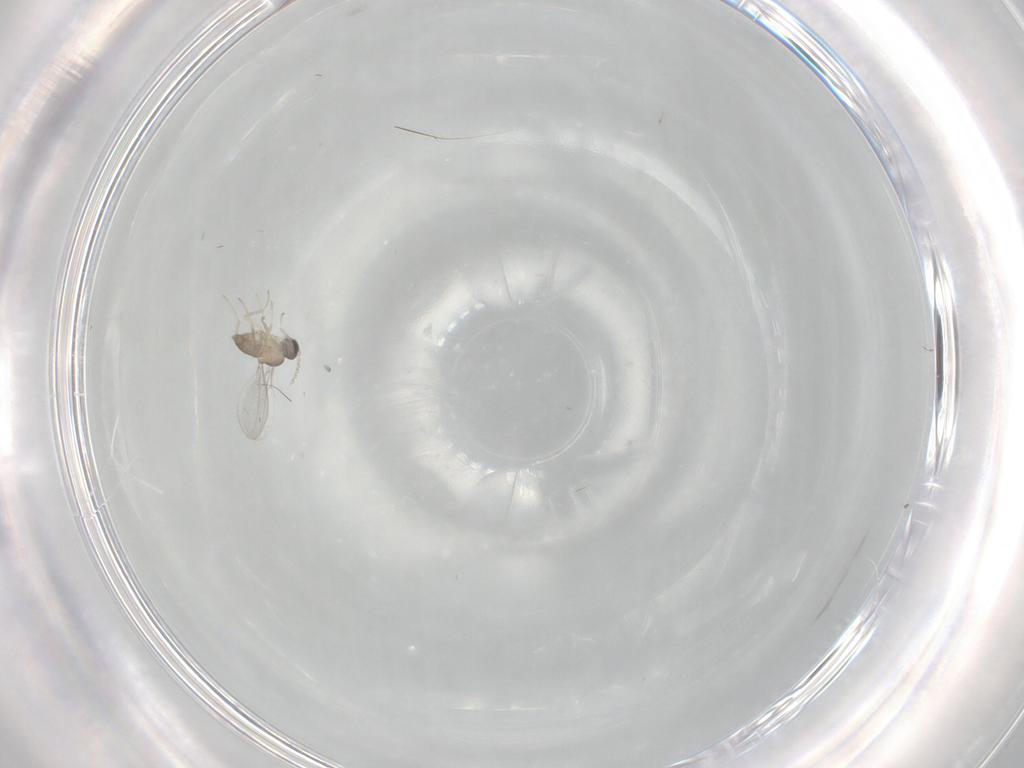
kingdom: Animalia
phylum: Arthropoda
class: Insecta
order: Diptera
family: Cecidomyiidae
